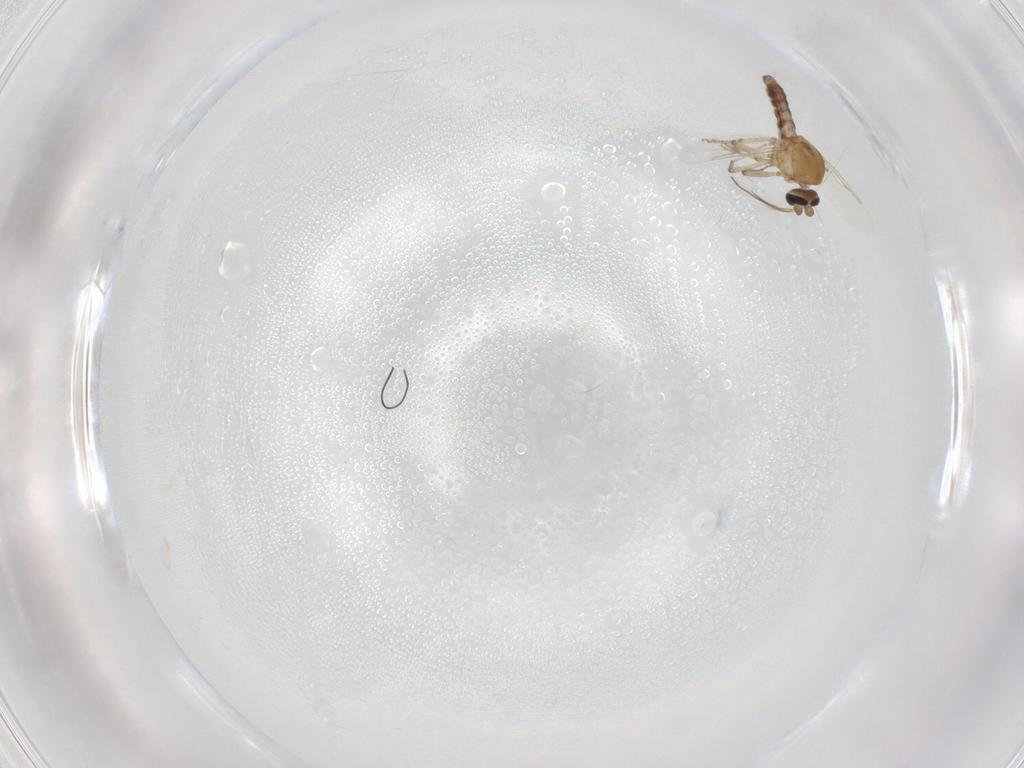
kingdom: Animalia
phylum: Arthropoda
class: Insecta
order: Diptera
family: Ceratopogonidae
